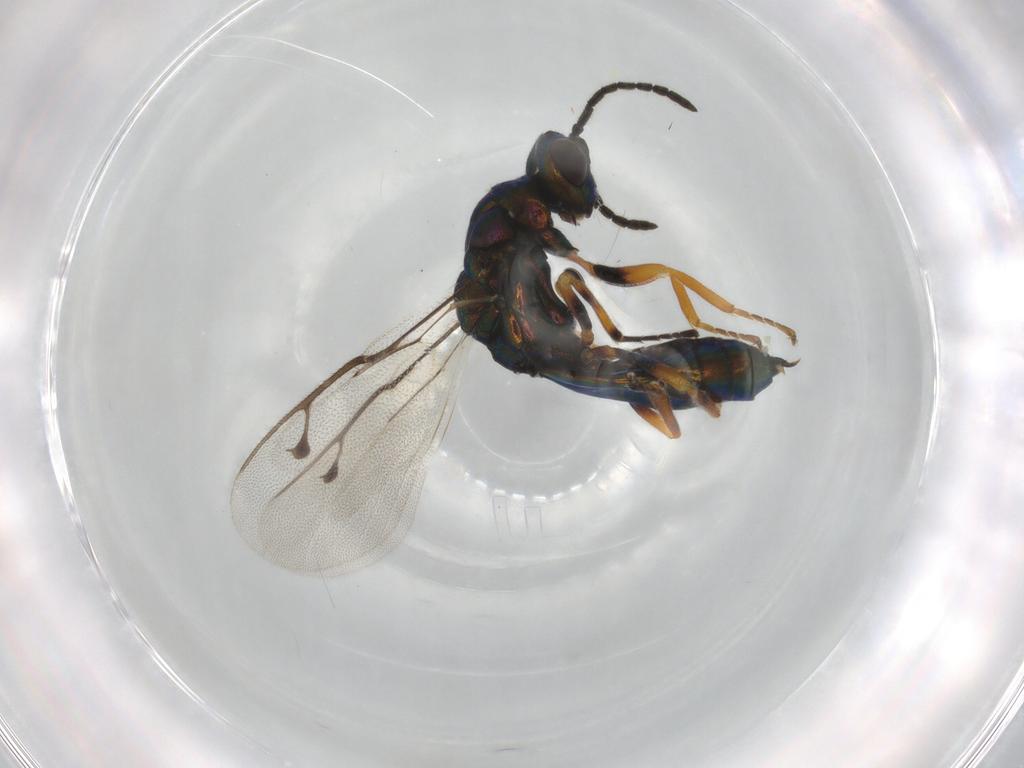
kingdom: Animalia
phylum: Arthropoda
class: Insecta
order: Hymenoptera
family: Pteromalidae
